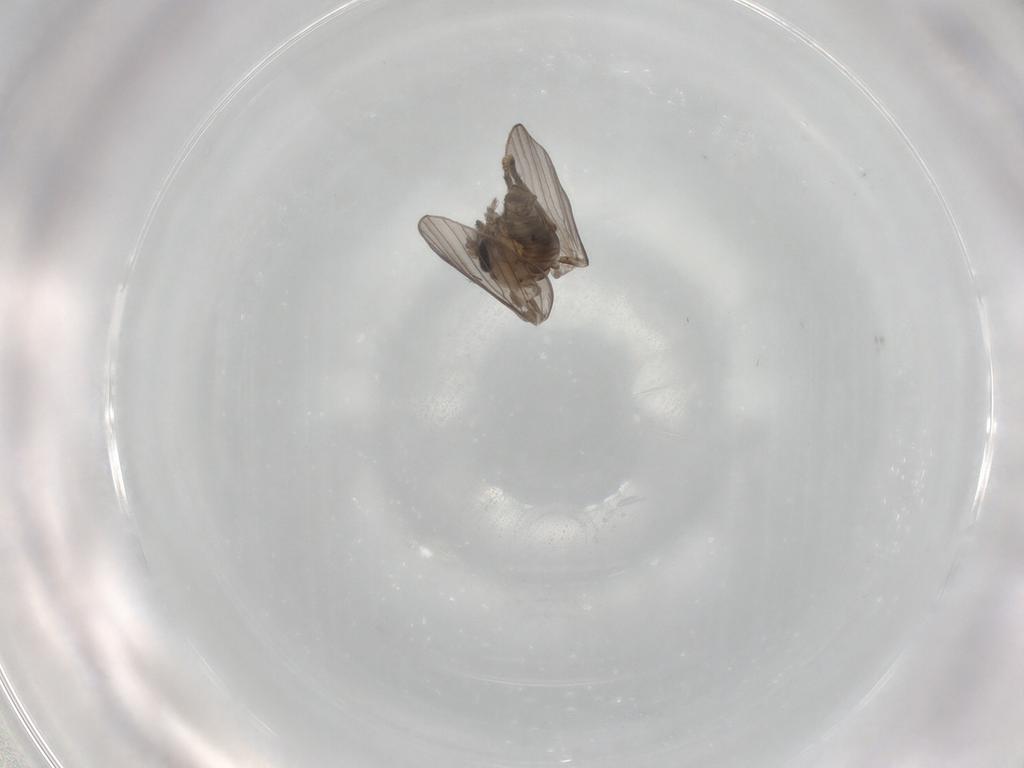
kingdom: Animalia
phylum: Arthropoda
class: Insecta
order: Diptera
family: Psychodidae
